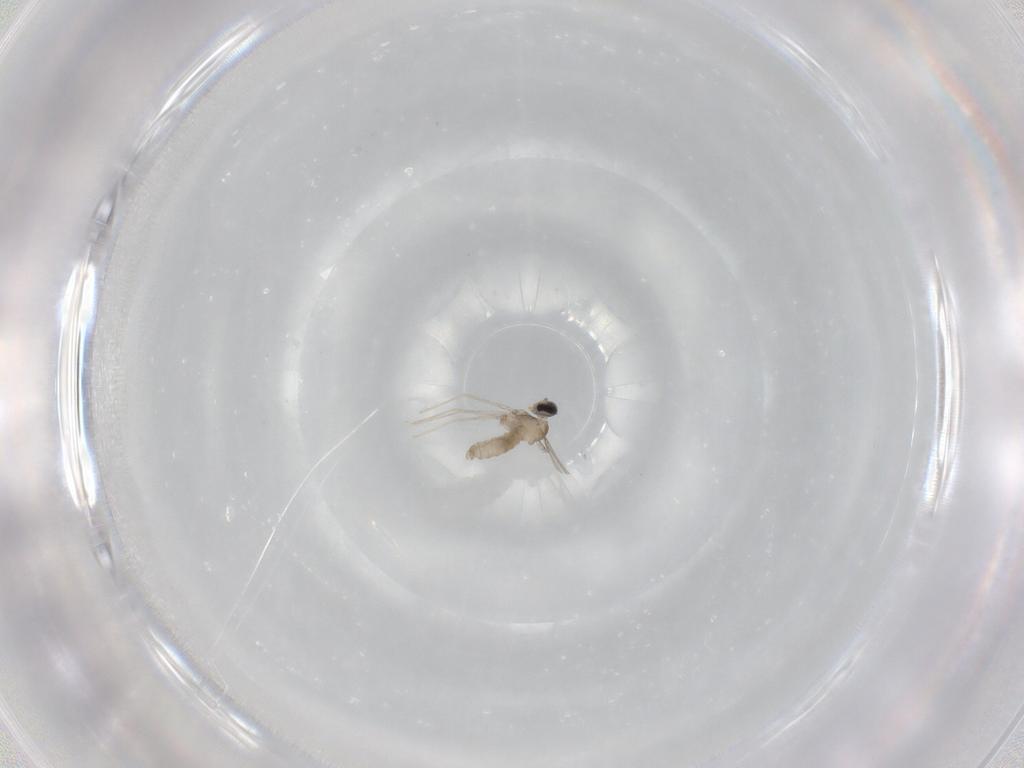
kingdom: Animalia
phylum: Arthropoda
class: Insecta
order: Diptera
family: Cecidomyiidae
